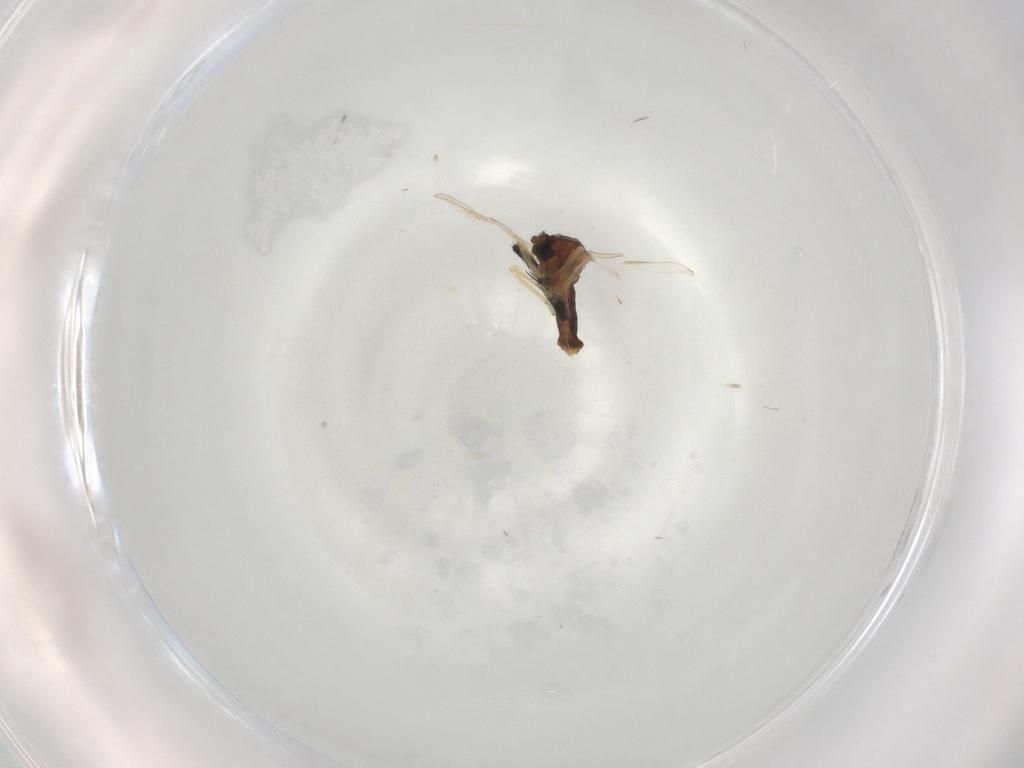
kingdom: Animalia
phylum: Arthropoda
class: Insecta
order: Diptera
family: Muscidae
